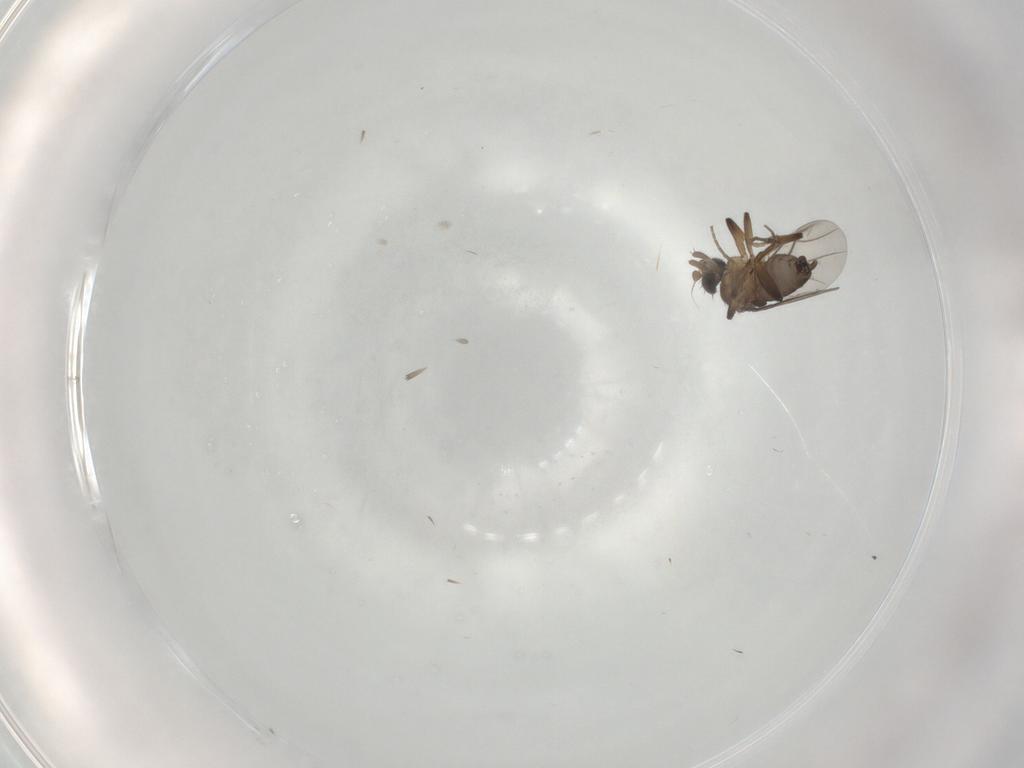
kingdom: Animalia
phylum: Arthropoda
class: Insecta
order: Diptera
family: Phoridae
